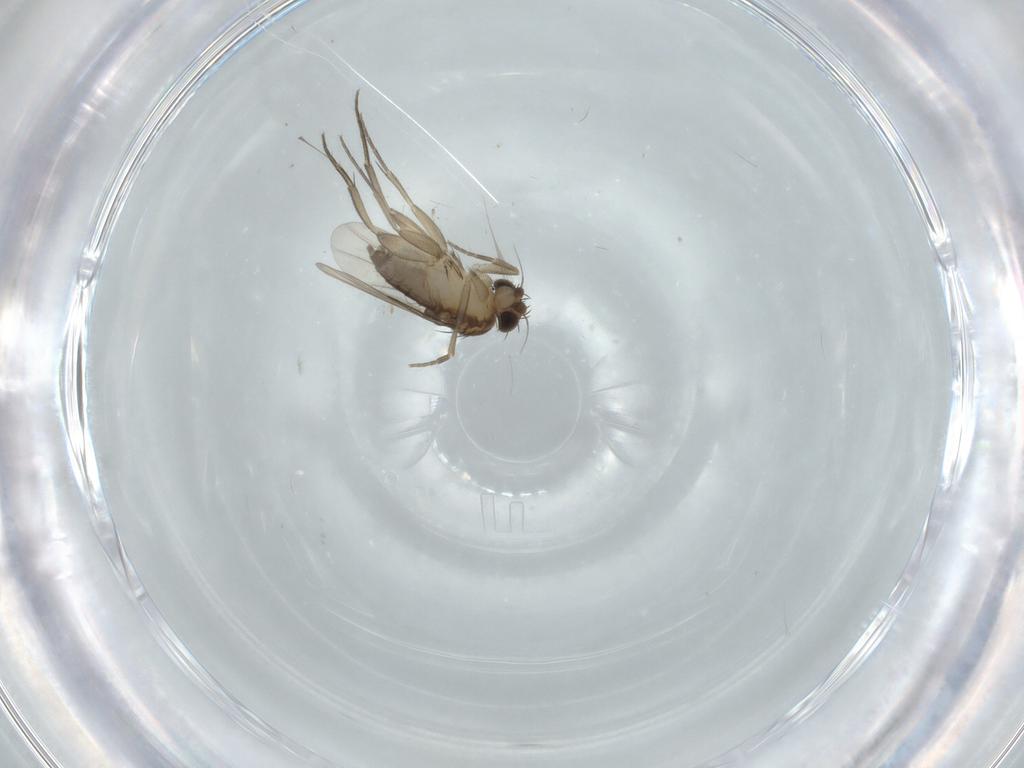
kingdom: Animalia
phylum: Arthropoda
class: Insecta
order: Diptera
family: Phoridae
